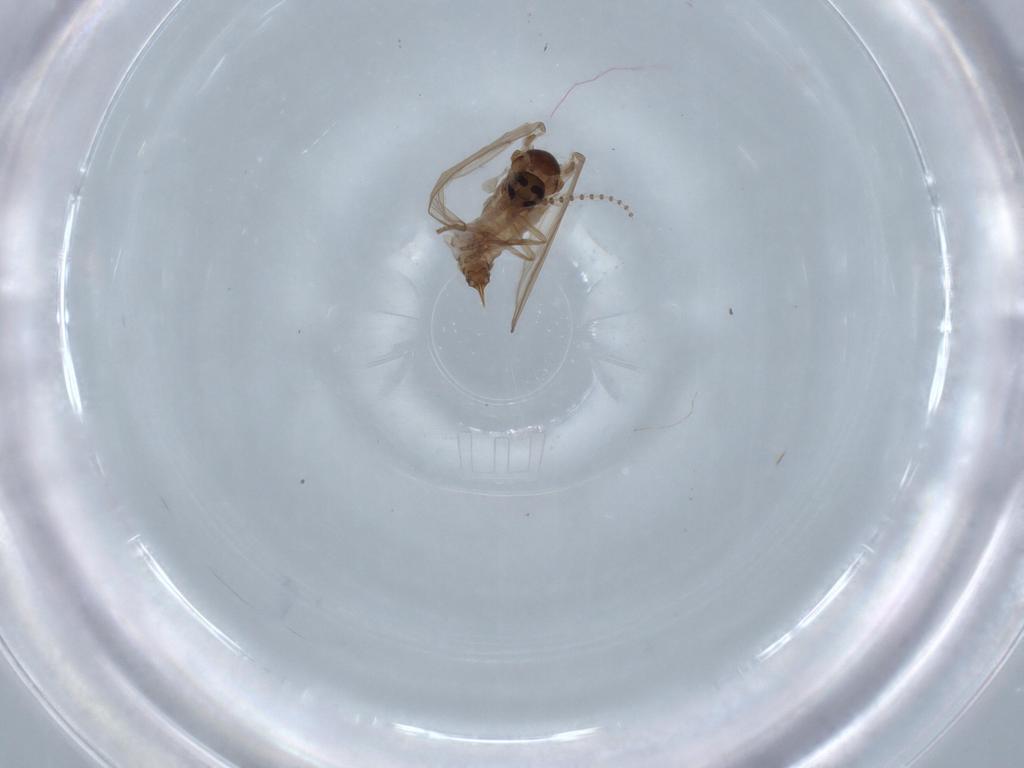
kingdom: Animalia
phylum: Arthropoda
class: Insecta
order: Diptera
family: Psychodidae
